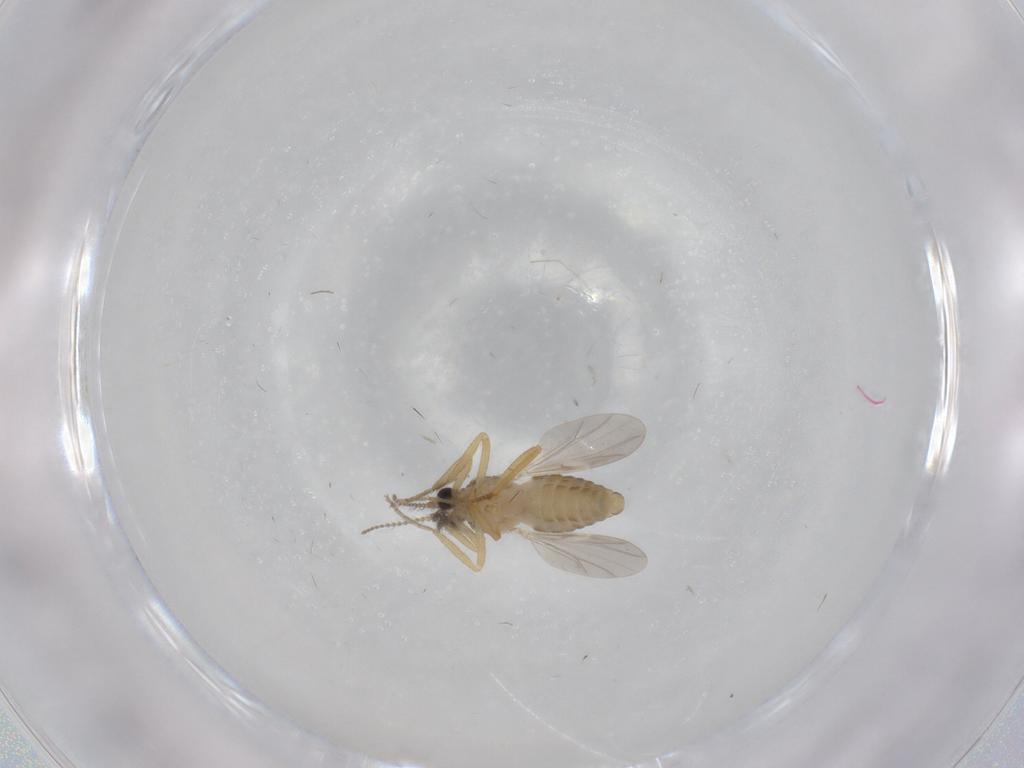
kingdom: Animalia
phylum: Arthropoda
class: Insecta
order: Diptera
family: Ceratopogonidae
